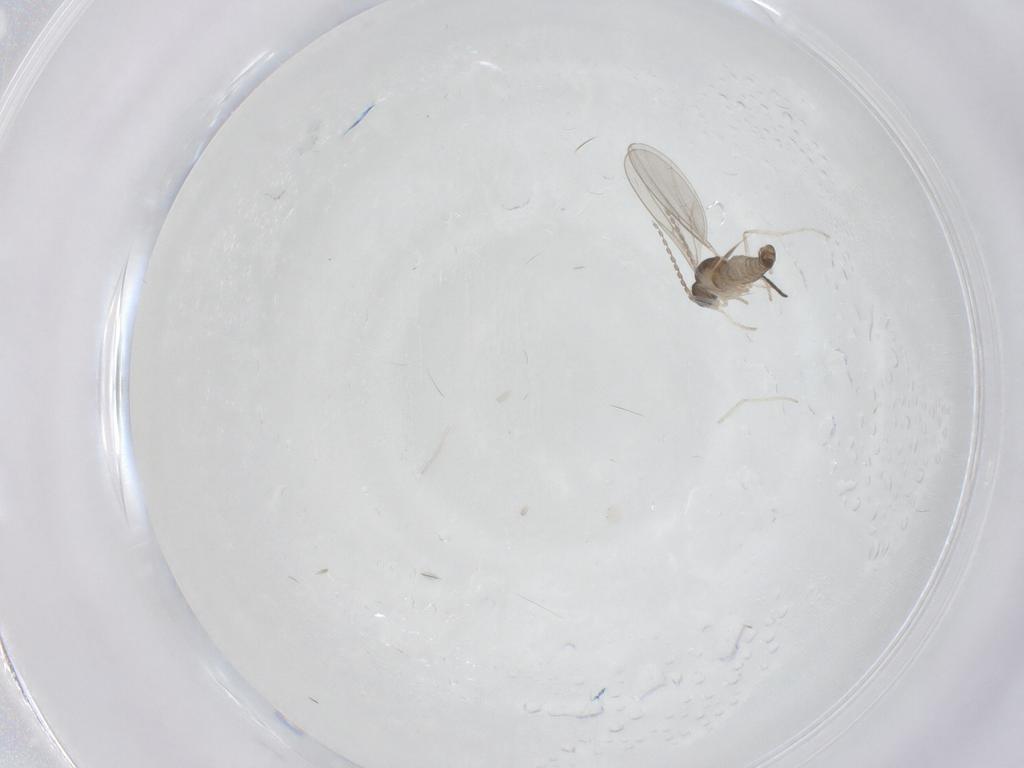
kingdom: Animalia
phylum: Arthropoda
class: Insecta
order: Diptera
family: Cecidomyiidae
